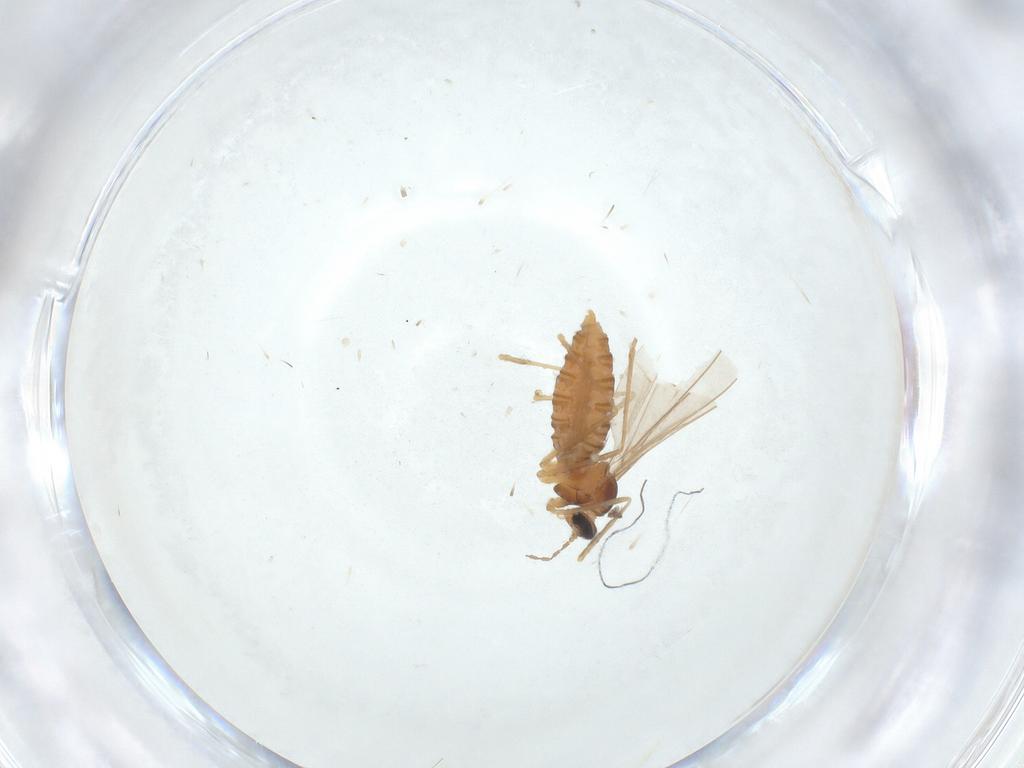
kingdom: Animalia
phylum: Arthropoda
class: Insecta
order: Diptera
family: Cecidomyiidae
